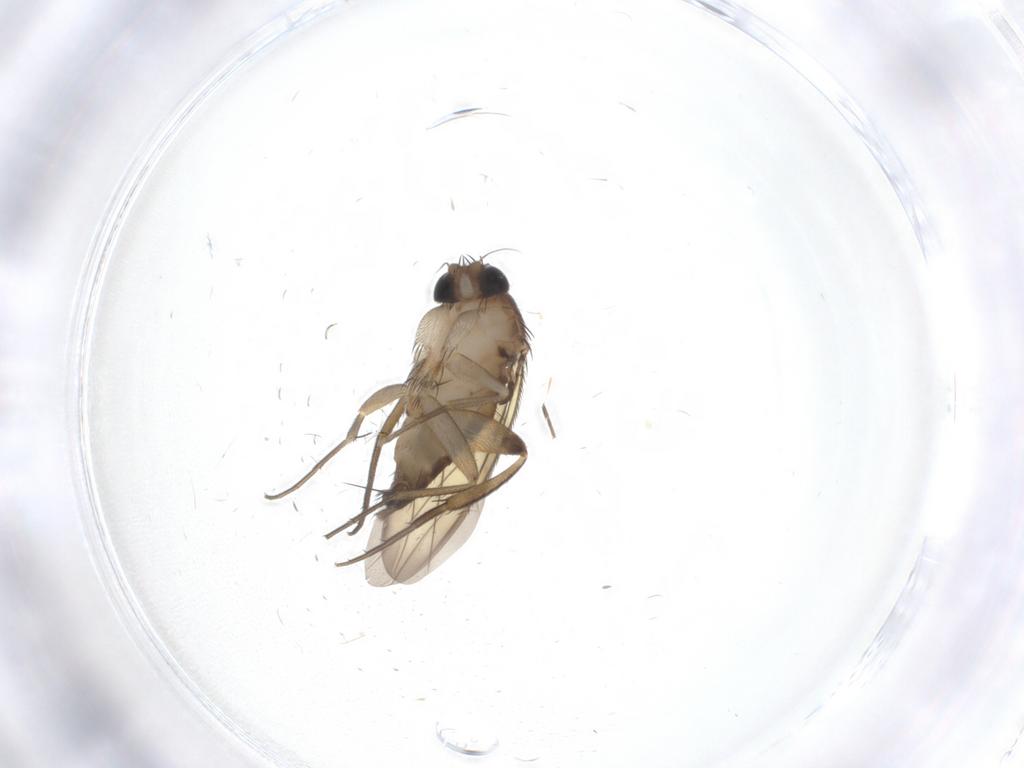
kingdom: Animalia
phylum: Arthropoda
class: Insecta
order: Diptera
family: Phoridae
